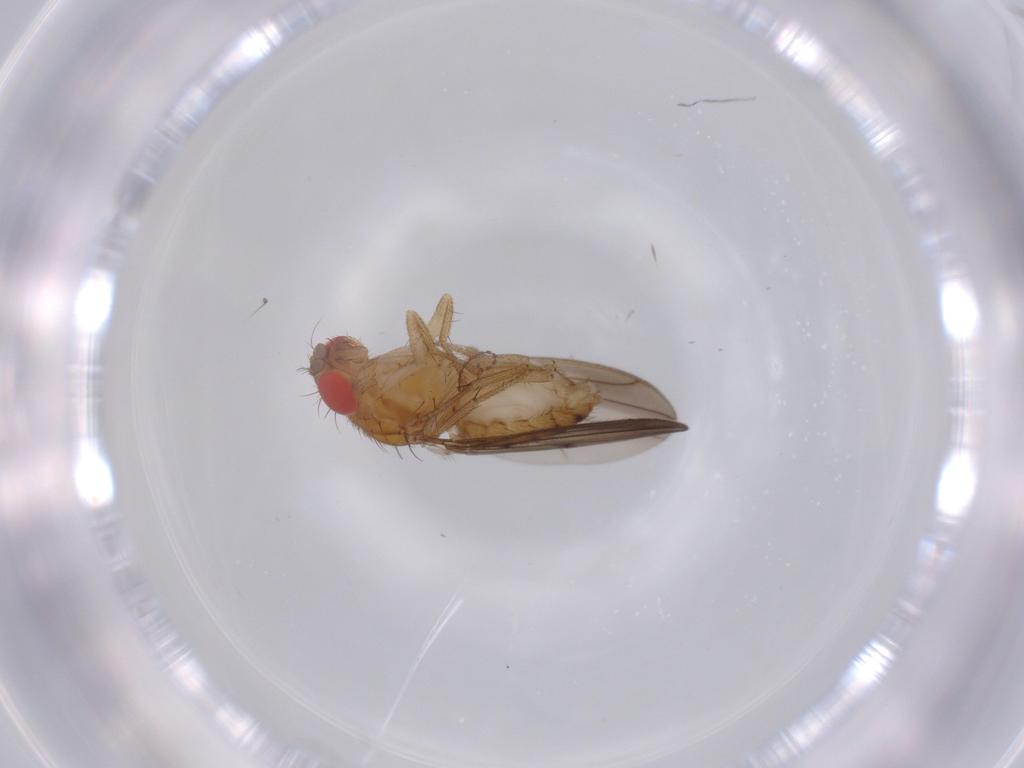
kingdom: Animalia
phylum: Arthropoda
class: Insecta
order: Diptera
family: Drosophilidae
